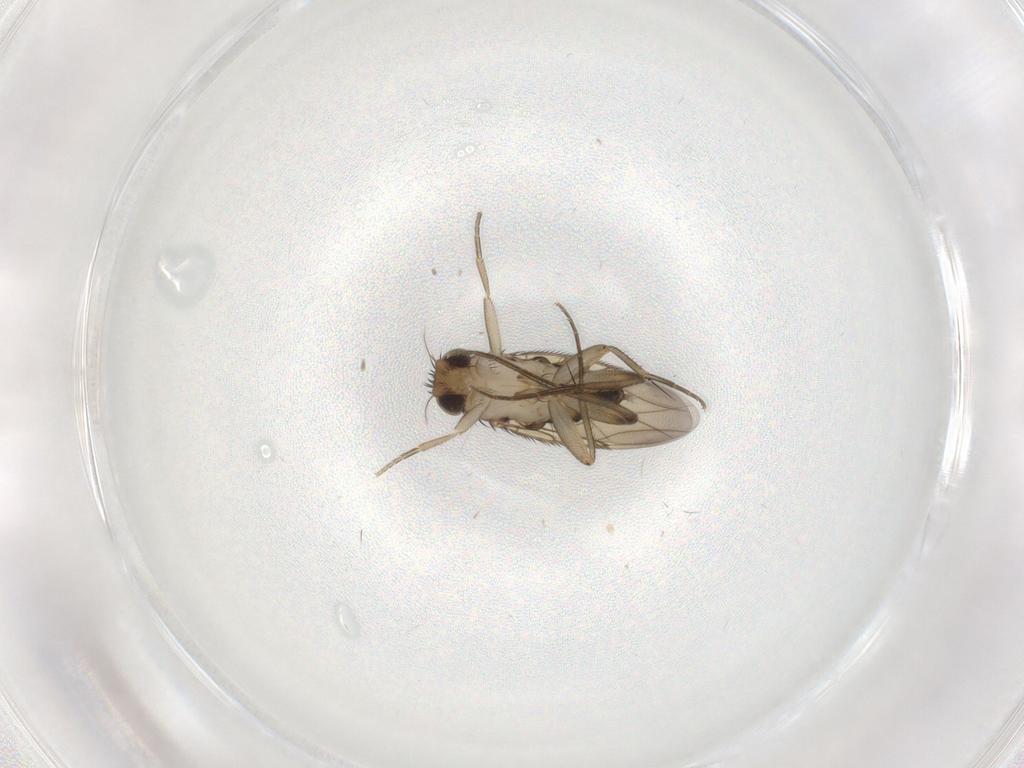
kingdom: Animalia
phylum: Arthropoda
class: Insecta
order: Diptera
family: Phoridae
